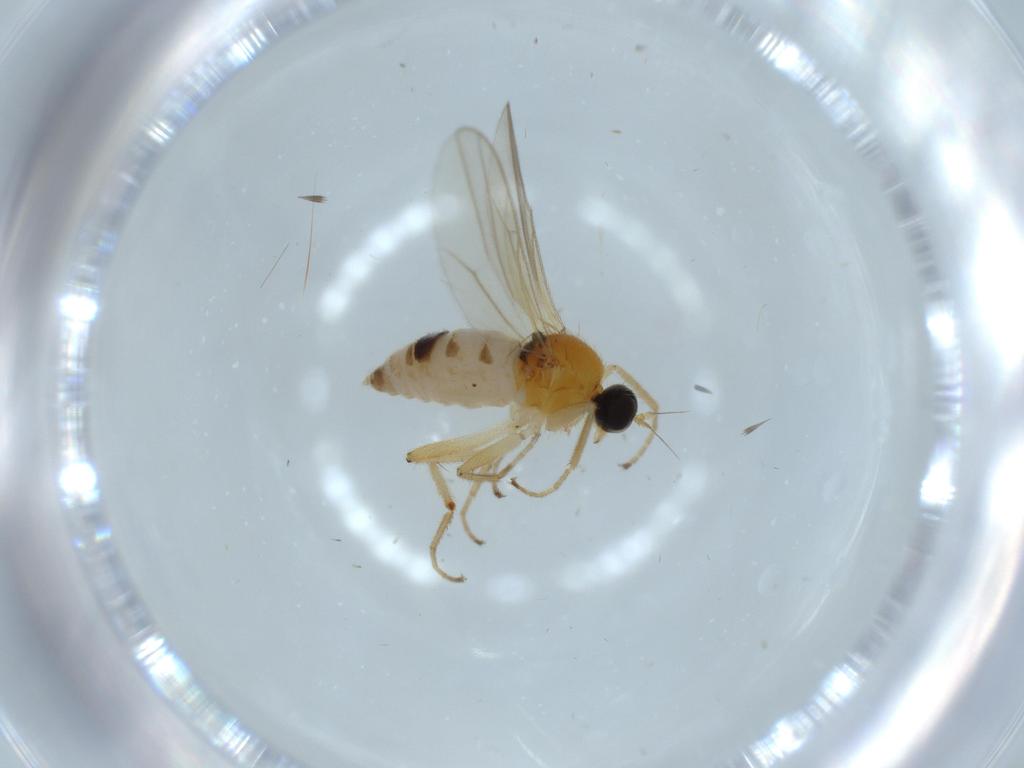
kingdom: Animalia
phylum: Arthropoda
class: Insecta
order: Diptera
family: Hybotidae
